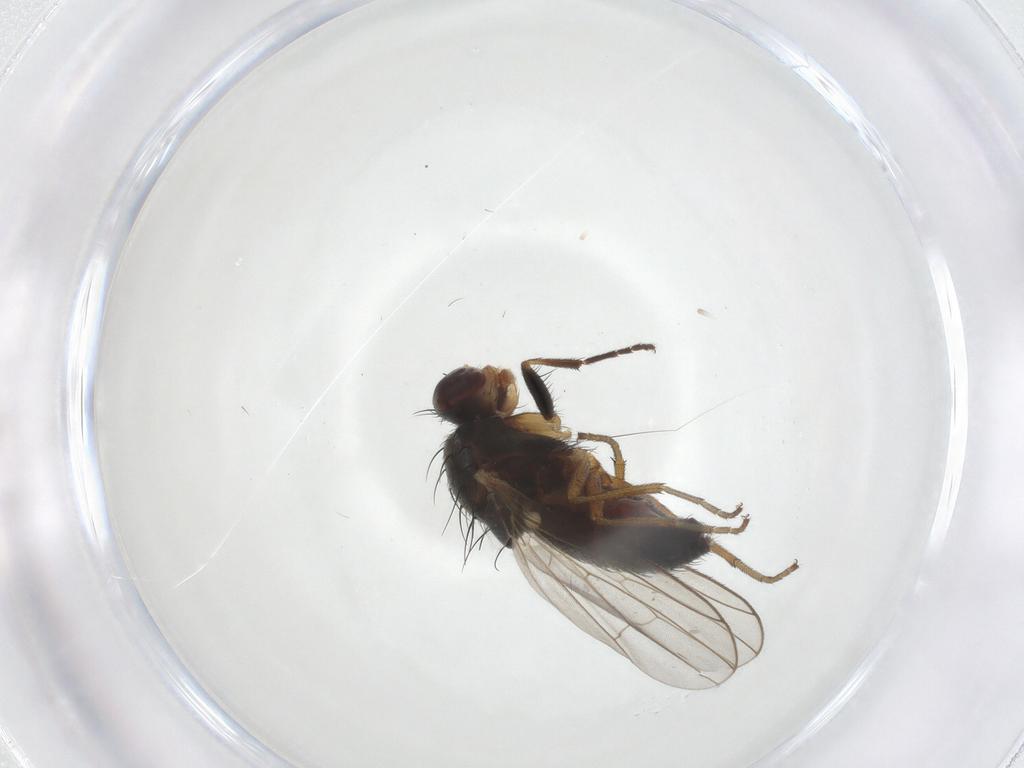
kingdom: Animalia
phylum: Arthropoda
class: Insecta
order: Diptera
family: Heleomyzidae
